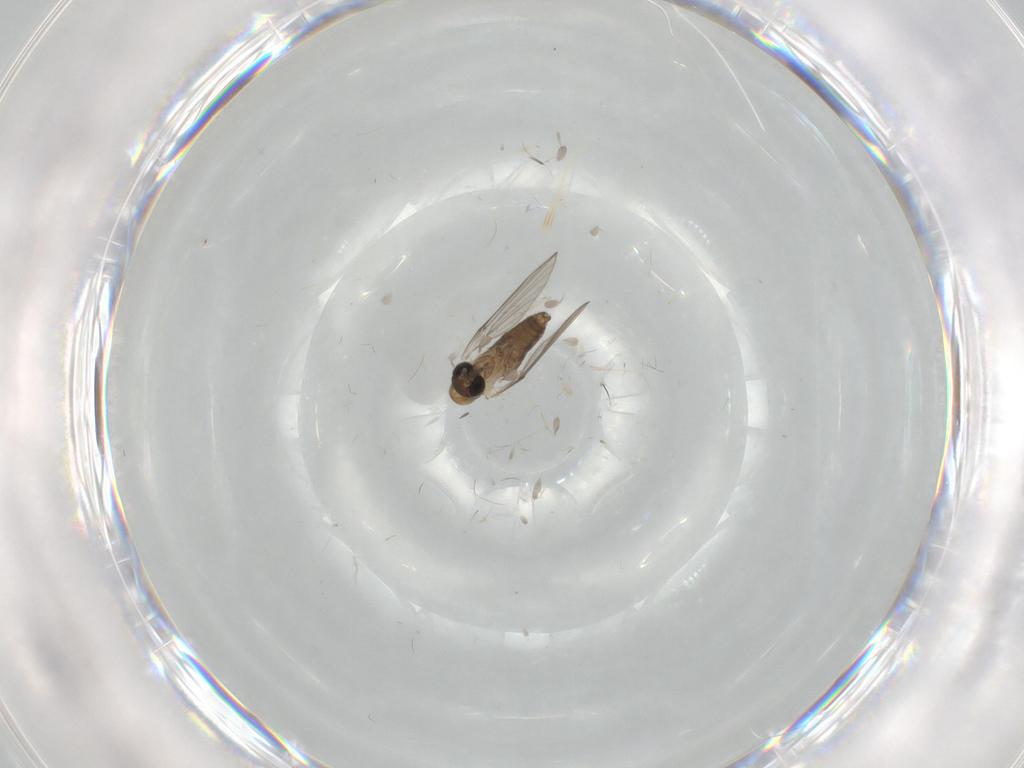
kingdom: Animalia
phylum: Arthropoda
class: Insecta
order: Diptera
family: Psychodidae
